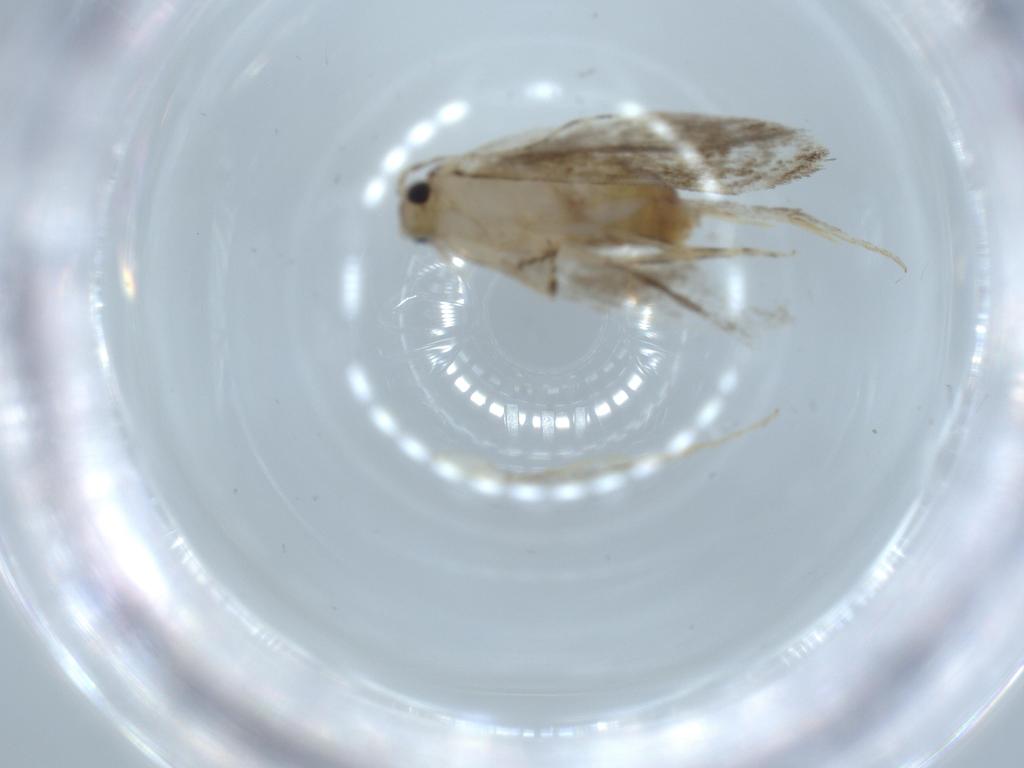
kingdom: Animalia
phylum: Arthropoda
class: Insecta
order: Lepidoptera
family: Tineidae
